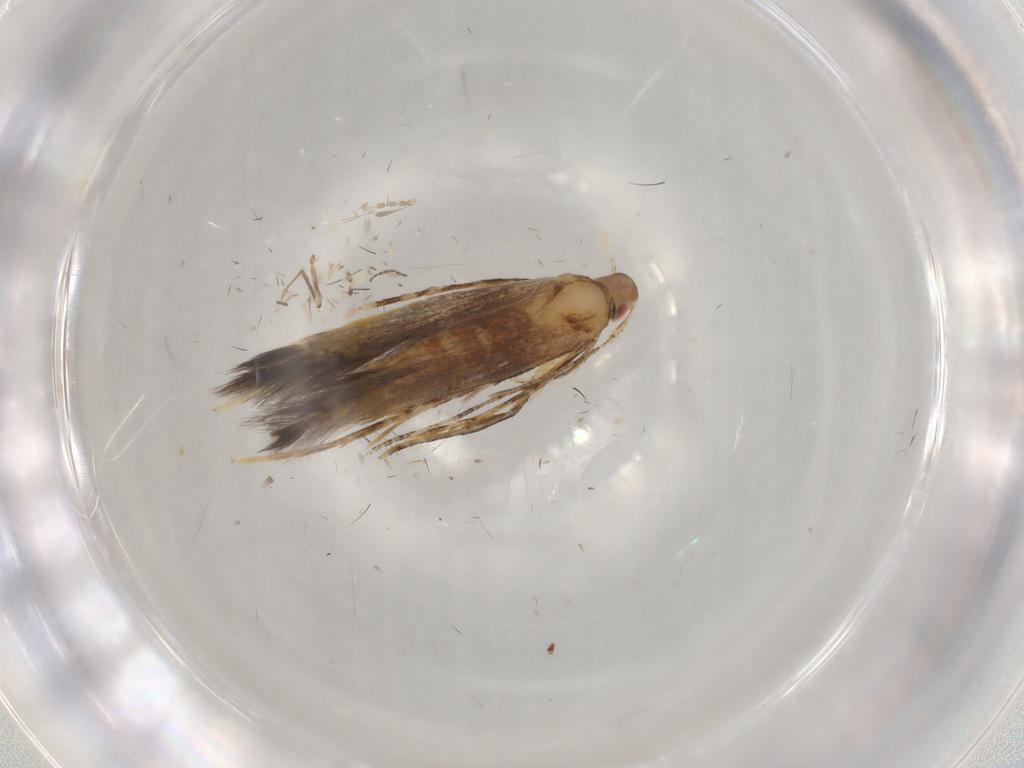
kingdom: Animalia
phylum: Arthropoda
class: Insecta
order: Lepidoptera
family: Cosmopterigidae
